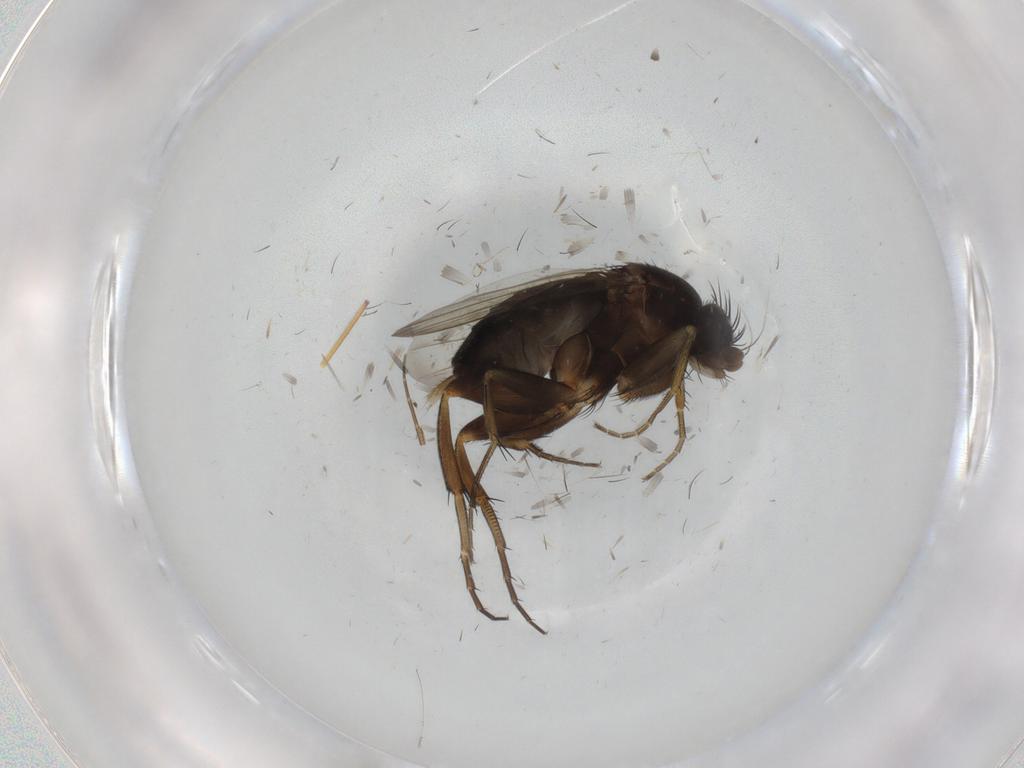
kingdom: Animalia
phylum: Arthropoda
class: Insecta
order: Diptera
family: Phoridae
